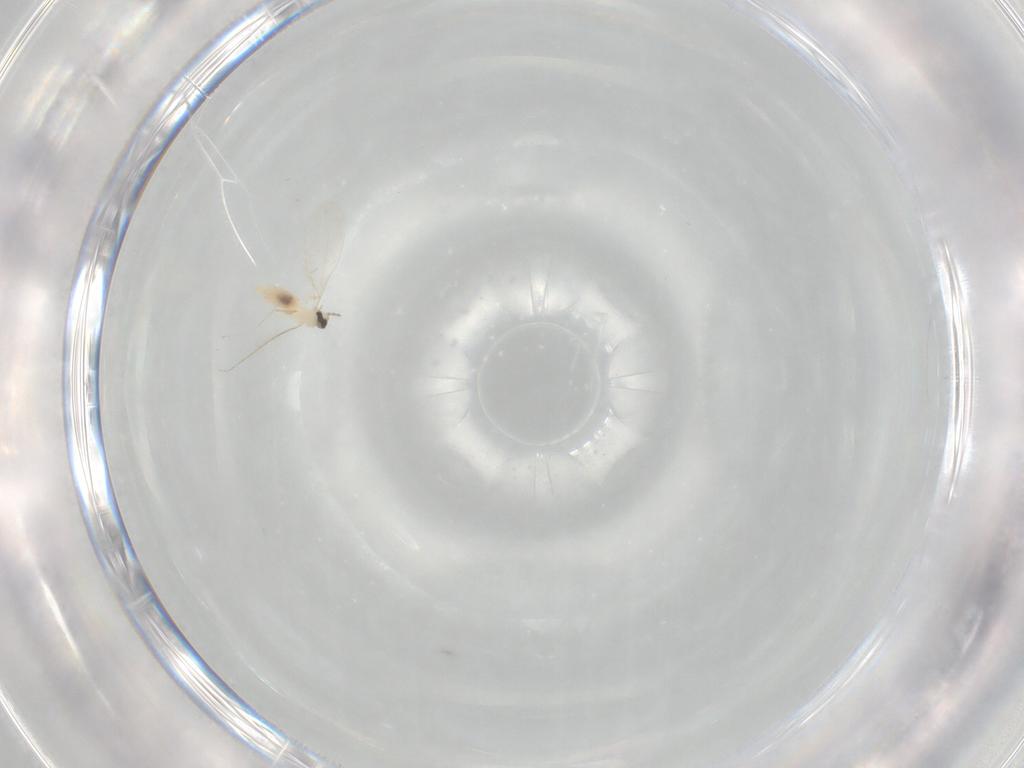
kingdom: Animalia
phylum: Arthropoda
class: Insecta
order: Diptera
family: Cecidomyiidae
